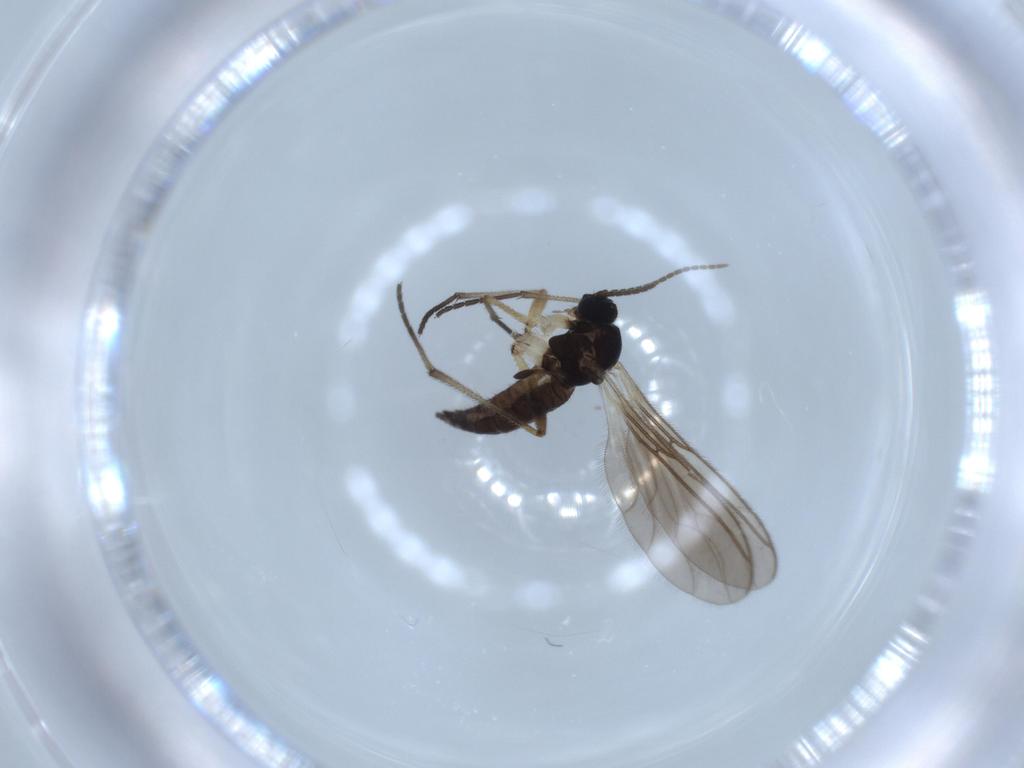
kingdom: Animalia
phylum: Arthropoda
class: Insecta
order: Diptera
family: Sciaridae
